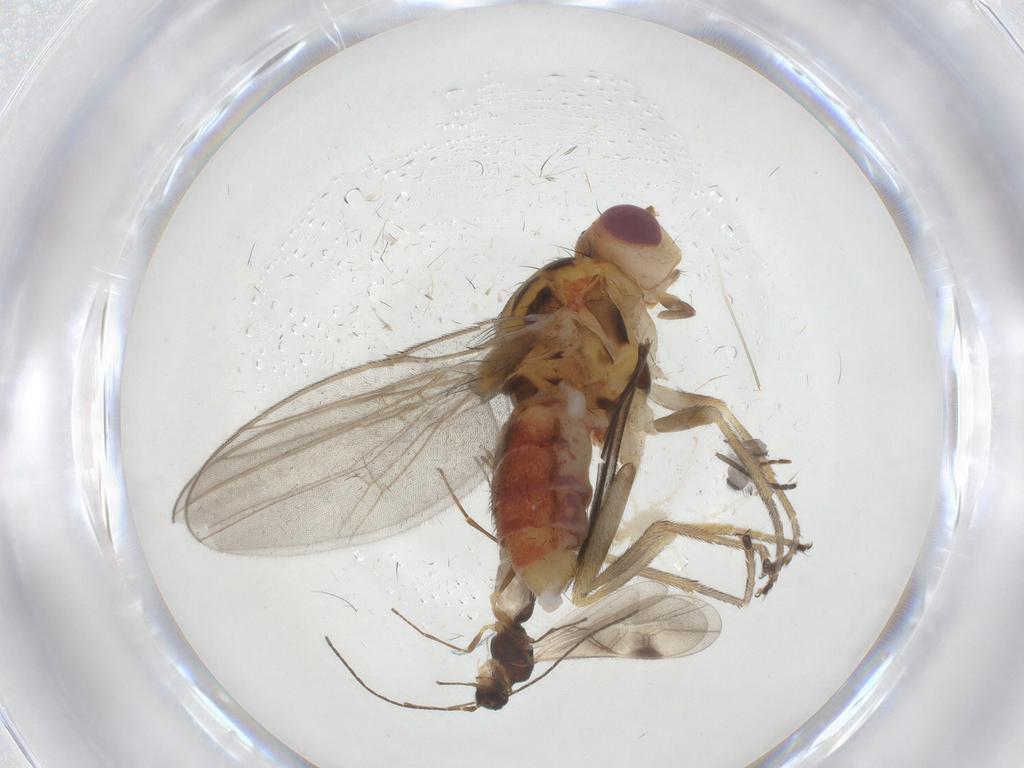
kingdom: Animalia
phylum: Arthropoda
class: Insecta
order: Diptera
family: Chloropidae
